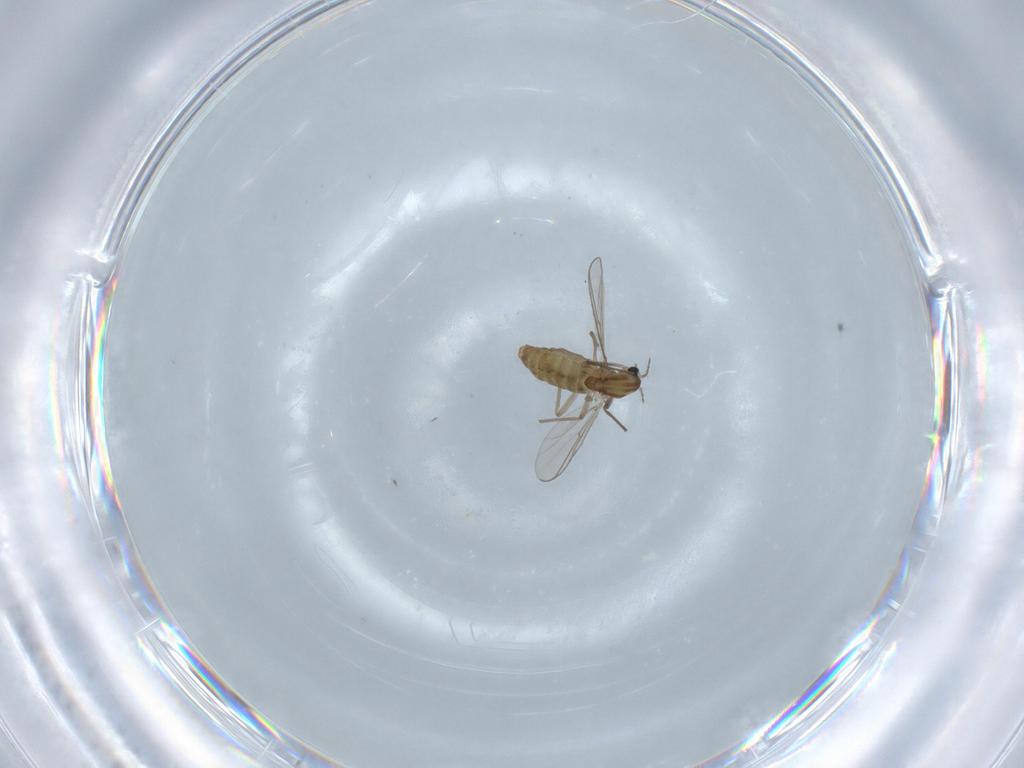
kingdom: Animalia
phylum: Arthropoda
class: Insecta
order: Diptera
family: Chironomidae
